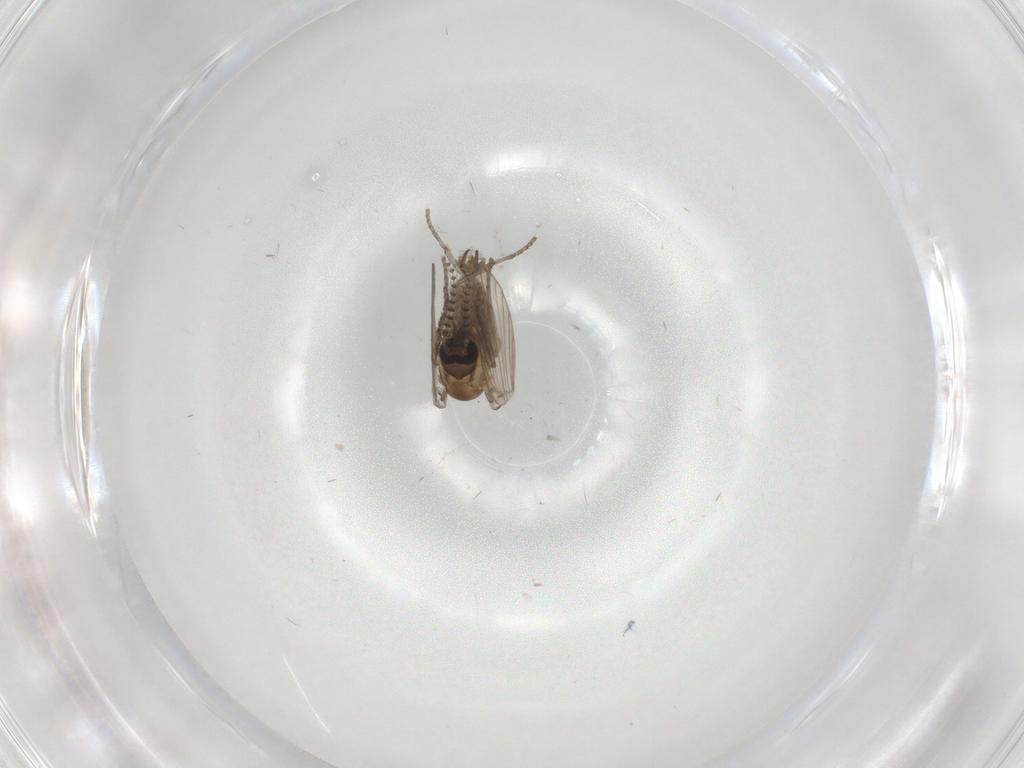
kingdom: Animalia
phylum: Arthropoda
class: Insecta
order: Diptera
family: Psychodidae
